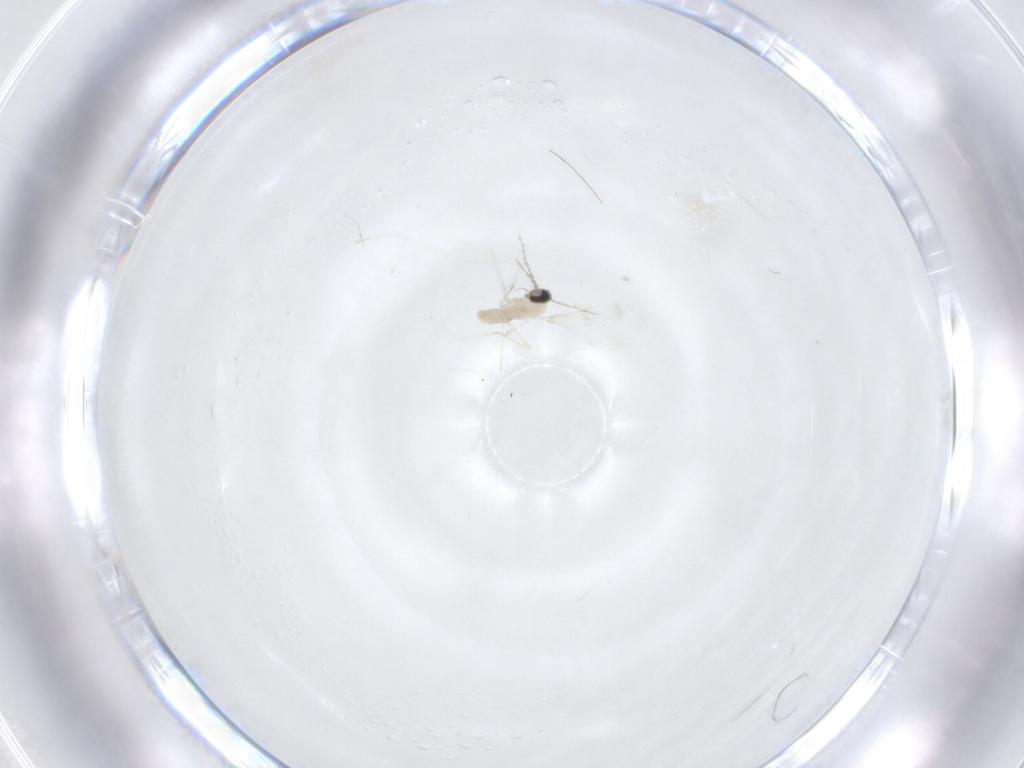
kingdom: Animalia
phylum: Arthropoda
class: Insecta
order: Diptera
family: Cecidomyiidae
